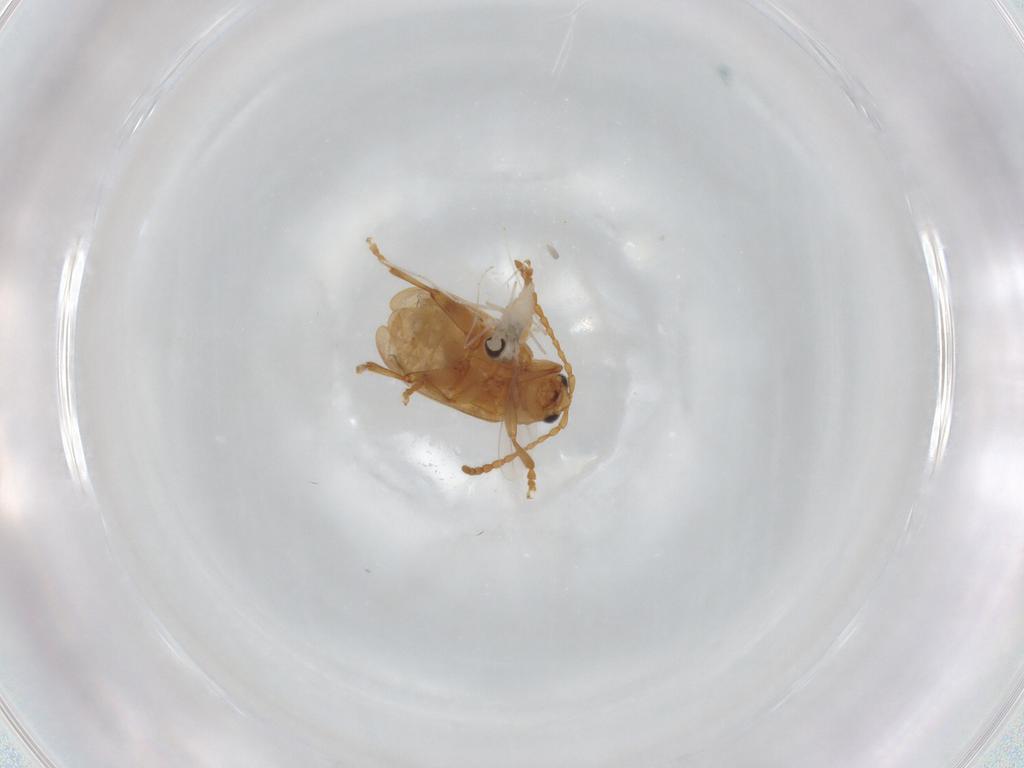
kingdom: Animalia
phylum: Arthropoda
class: Insecta
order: Diptera
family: Cecidomyiidae
